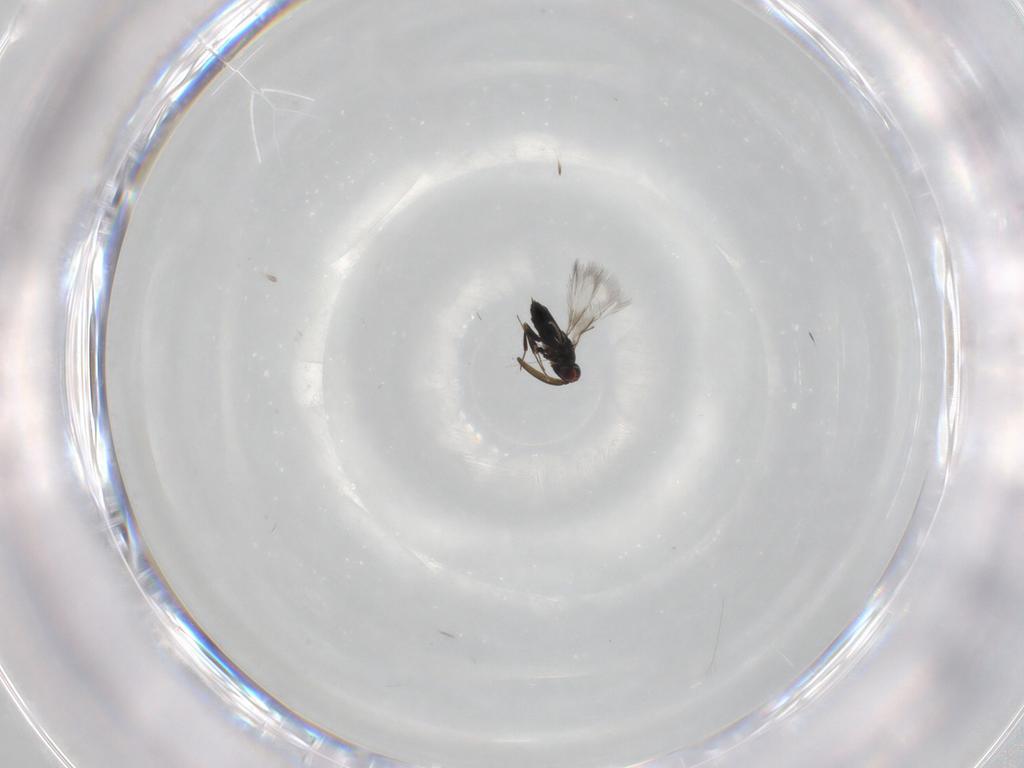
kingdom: Animalia
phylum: Arthropoda
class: Insecta
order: Hymenoptera
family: Signiphoridae
